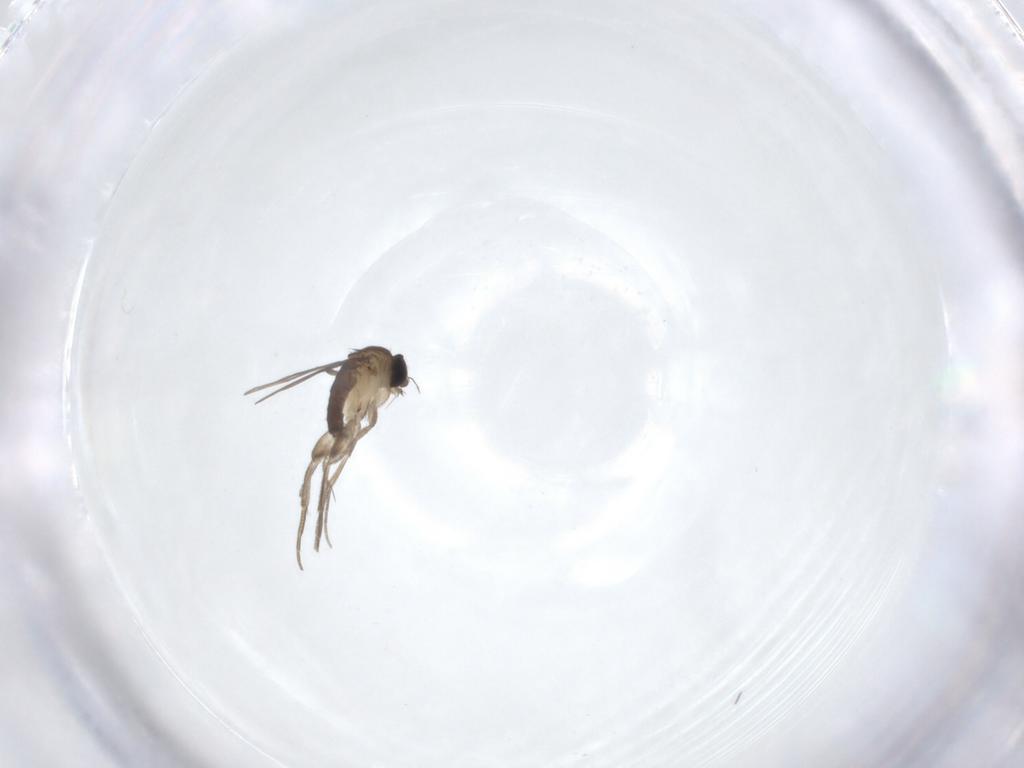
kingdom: Animalia
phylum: Arthropoda
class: Insecta
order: Diptera
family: Phoridae
